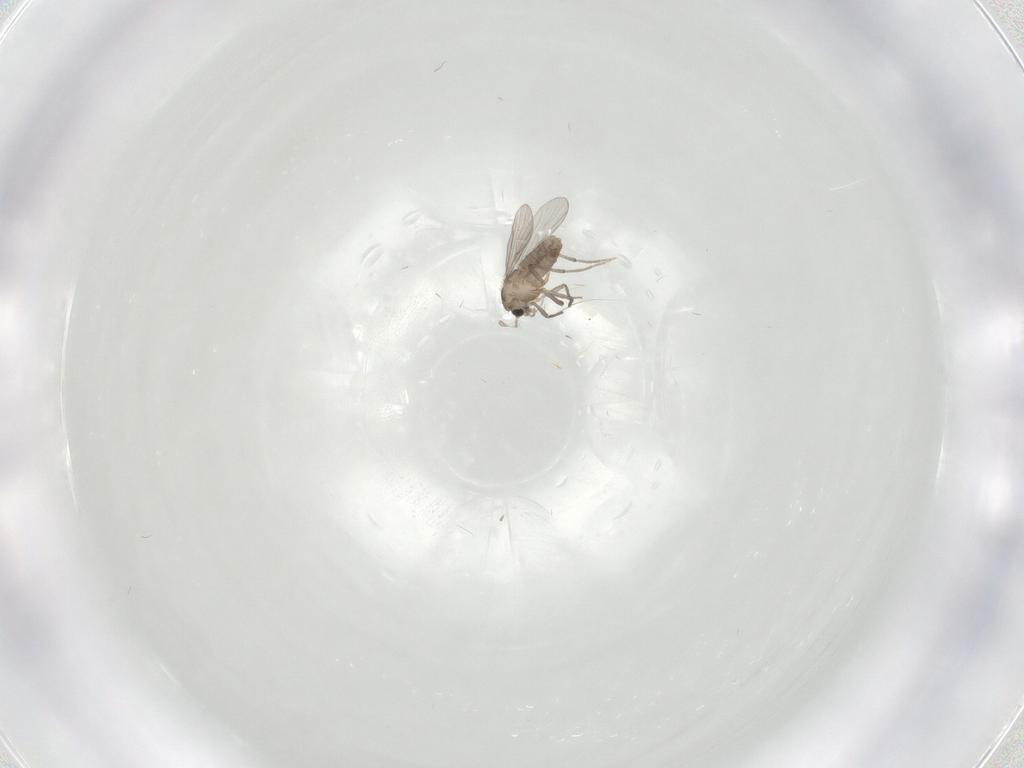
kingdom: Animalia
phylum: Arthropoda
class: Insecta
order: Diptera
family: Chironomidae
